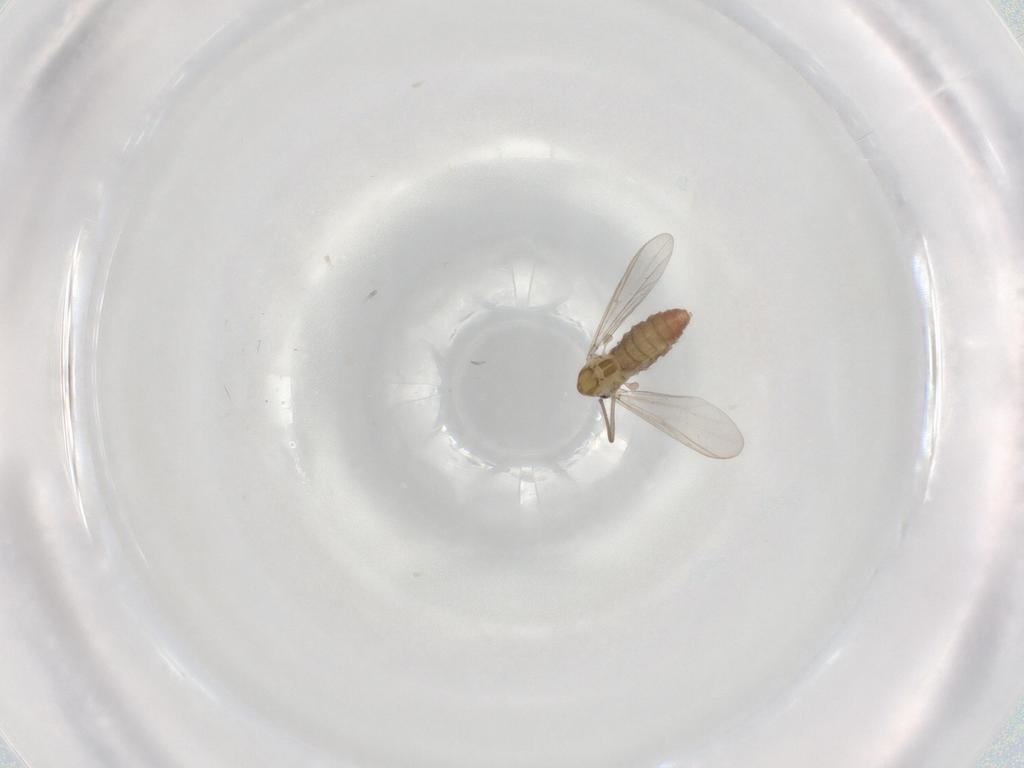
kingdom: Animalia
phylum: Arthropoda
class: Insecta
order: Diptera
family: Chironomidae
